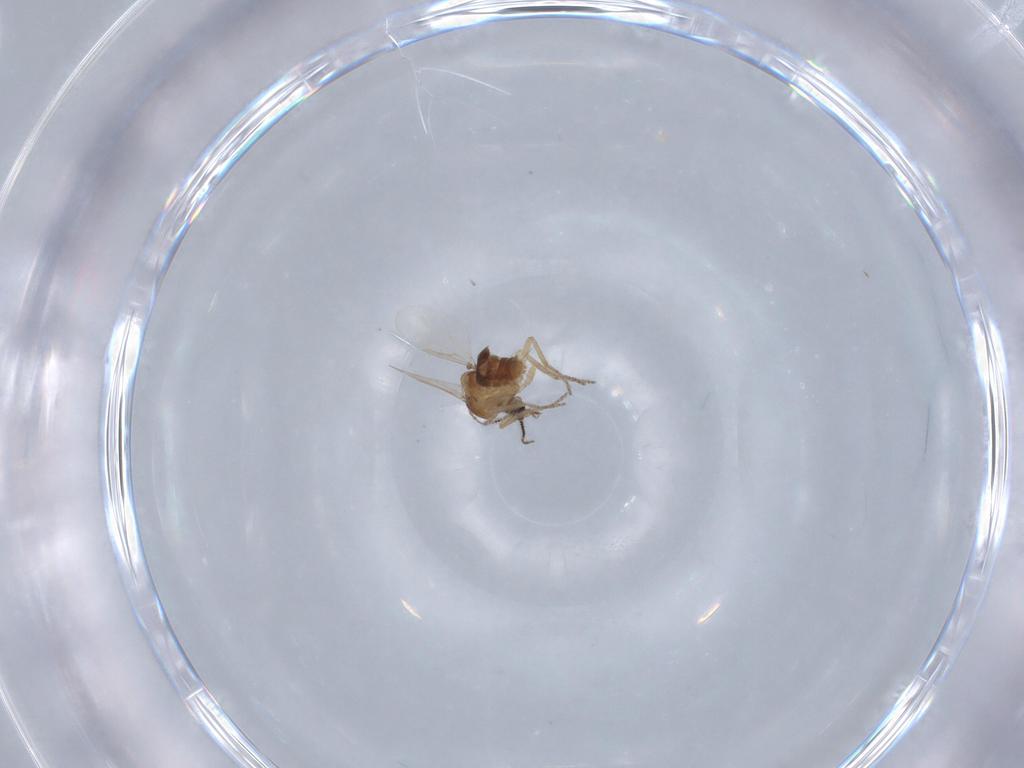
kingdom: Animalia
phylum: Arthropoda
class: Insecta
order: Diptera
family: Ceratopogonidae
